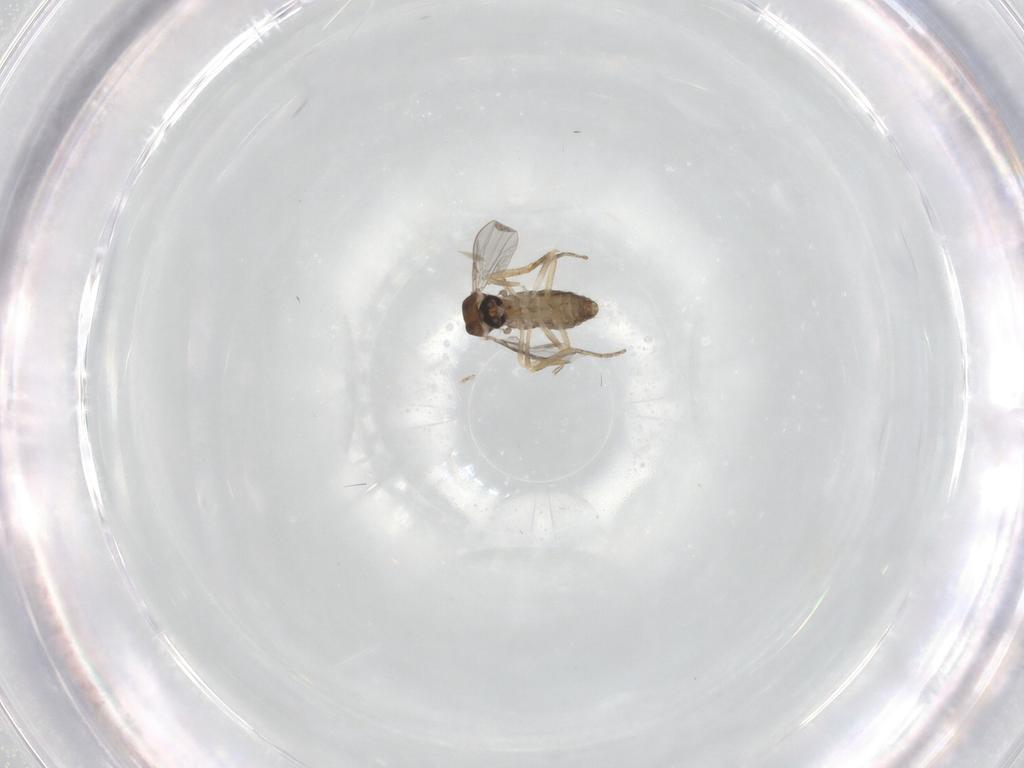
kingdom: Animalia
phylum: Arthropoda
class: Insecta
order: Diptera
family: Ceratopogonidae
